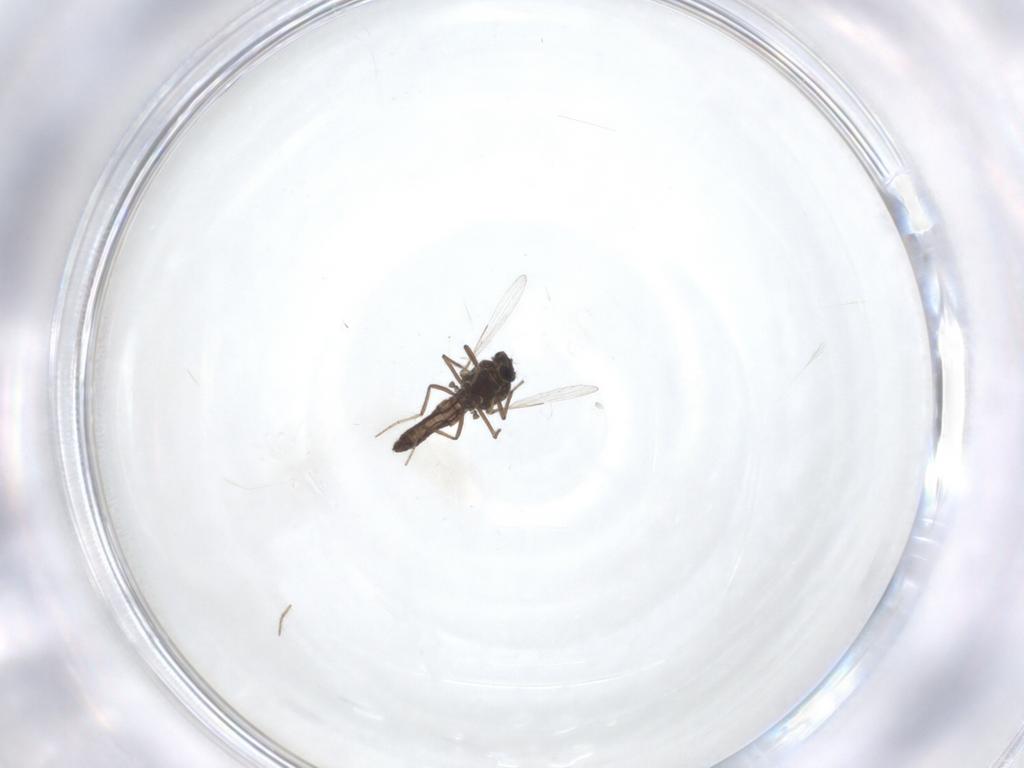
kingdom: Animalia
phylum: Arthropoda
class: Insecta
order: Diptera
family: Ceratopogonidae
